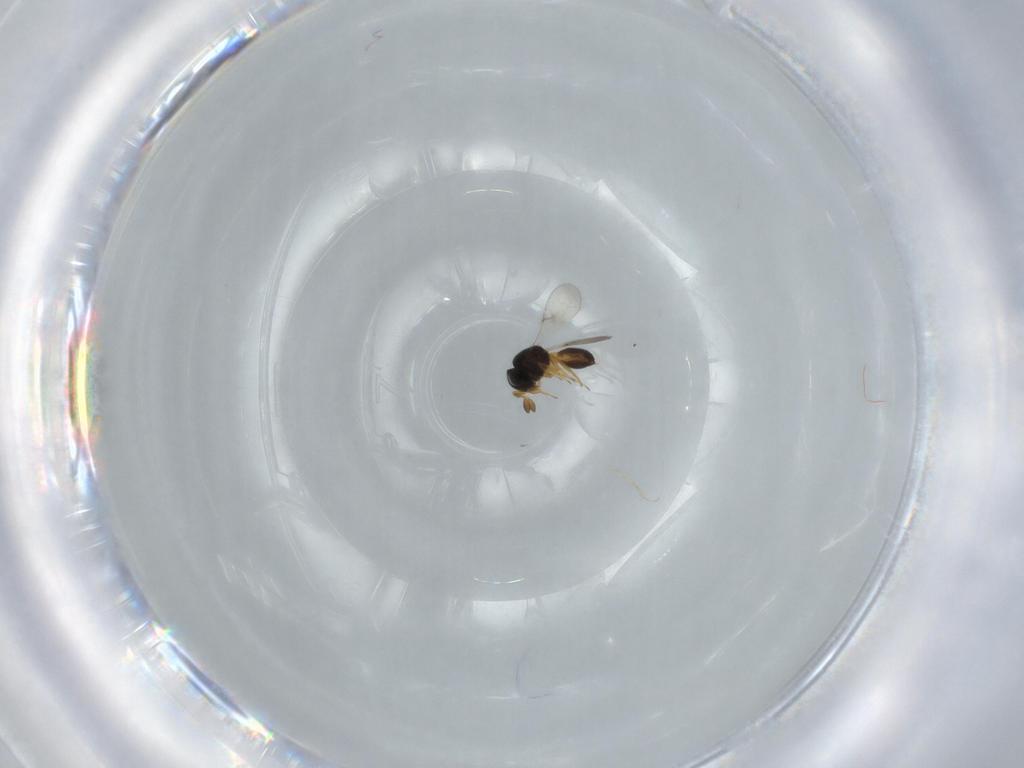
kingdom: Animalia
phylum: Arthropoda
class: Insecta
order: Hymenoptera
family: Scelionidae
